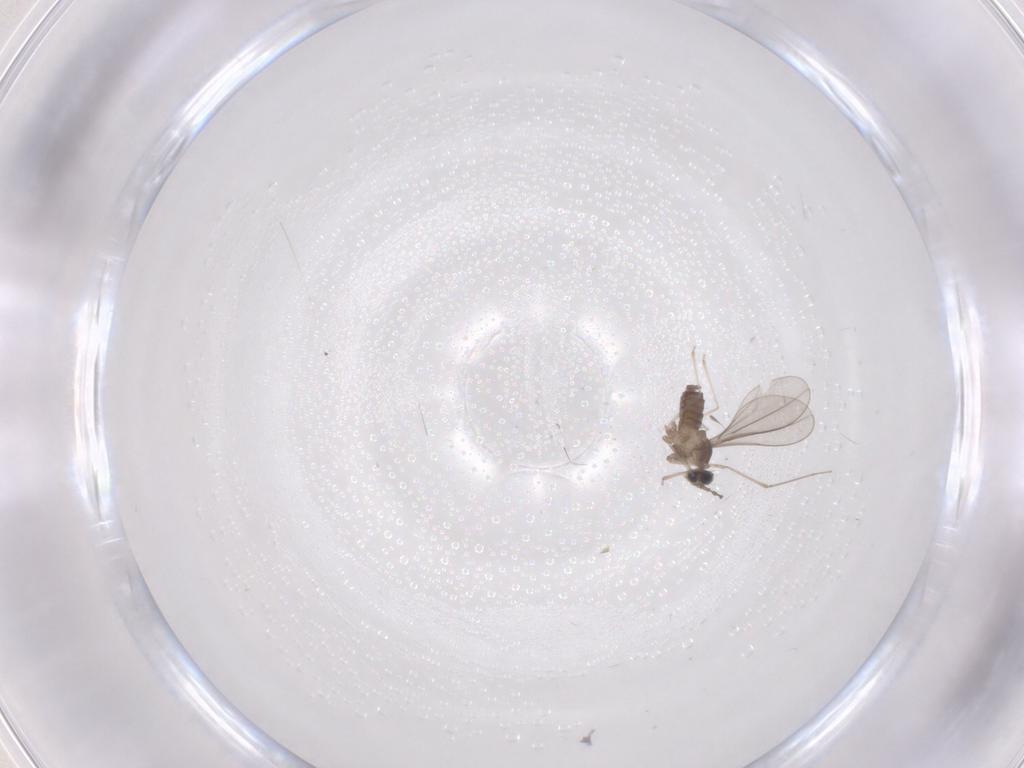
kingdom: Animalia
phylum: Arthropoda
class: Insecta
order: Diptera
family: Cecidomyiidae
